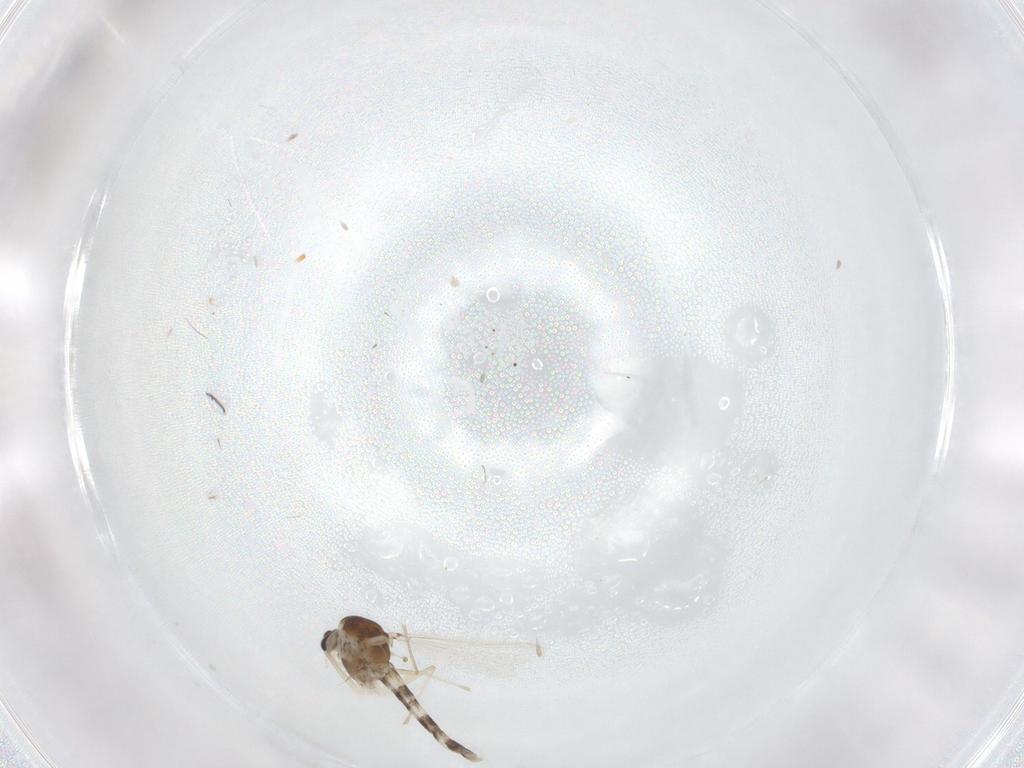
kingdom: Animalia
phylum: Arthropoda
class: Insecta
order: Diptera
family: Chironomidae
